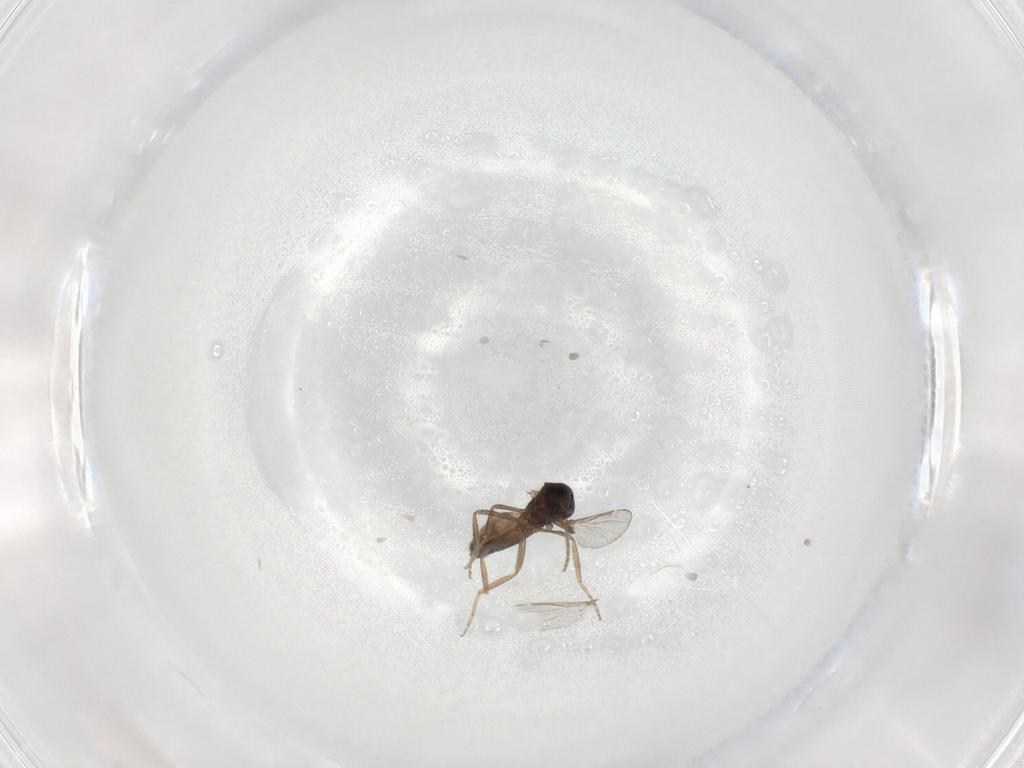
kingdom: Animalia
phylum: Arthropoda
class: Insecta
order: Diptera
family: Ceratopogonidae
